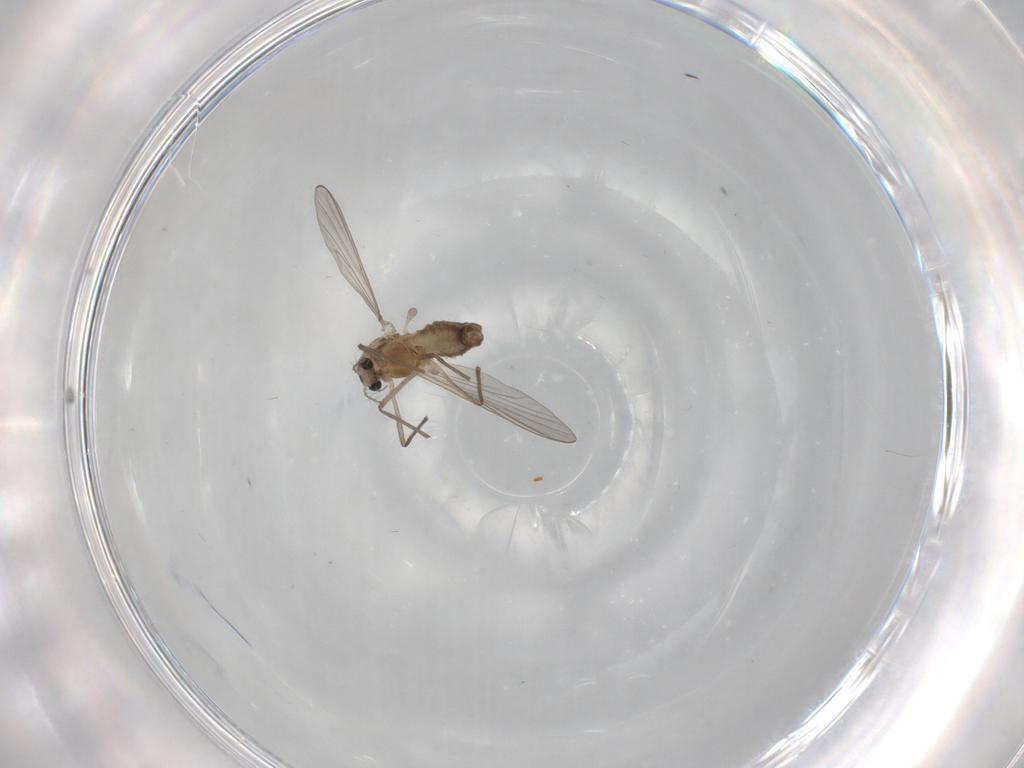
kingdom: Animalia
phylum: Arthropoda
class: Insecta
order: Diptera
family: Chironomidae
